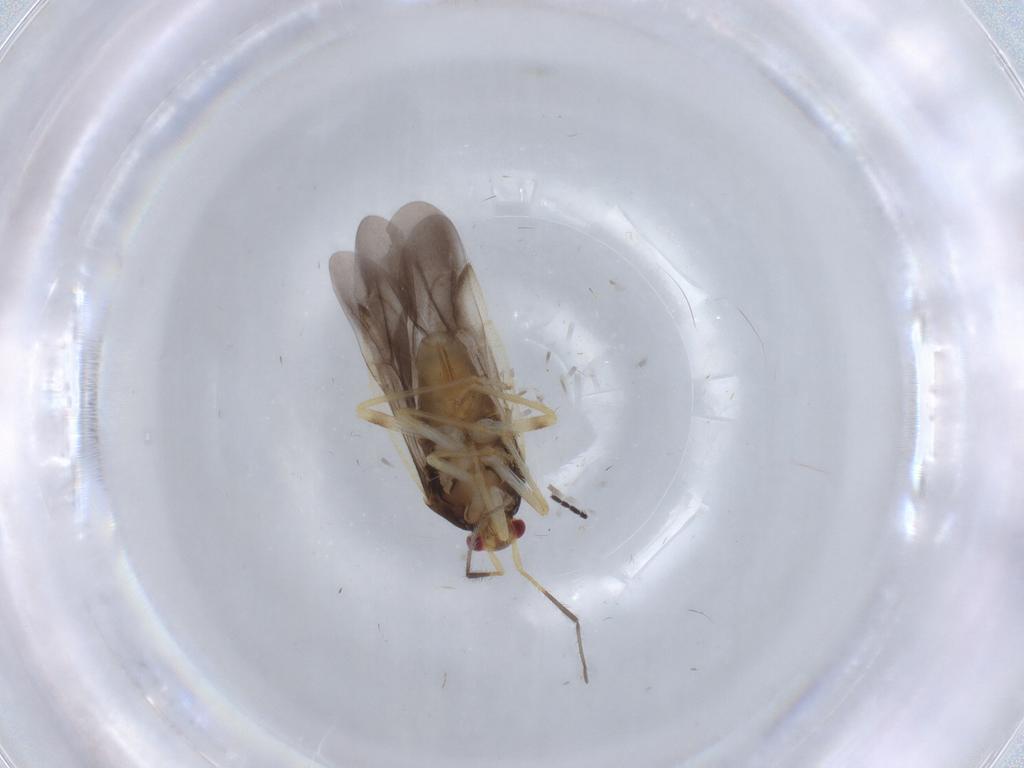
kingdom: Animalia
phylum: Arthropoda
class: Insecta
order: Hemiptera
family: Miridae
